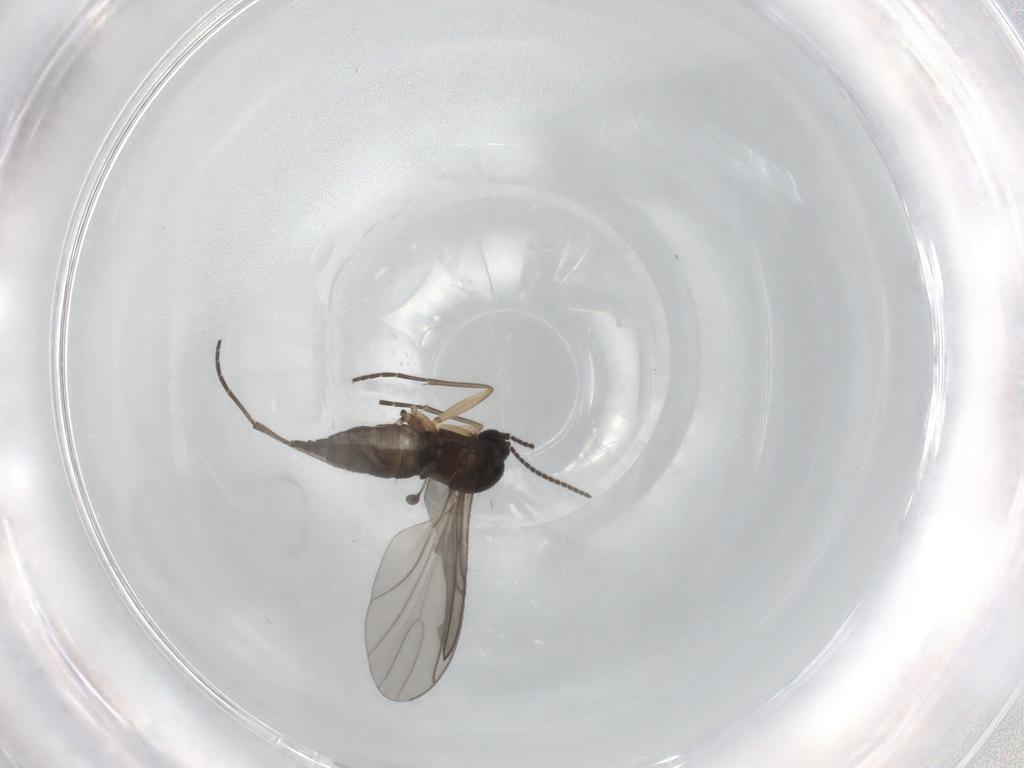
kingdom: Animalia
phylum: Arthropoda
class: Insecta
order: Diptera
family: Sciaridae
